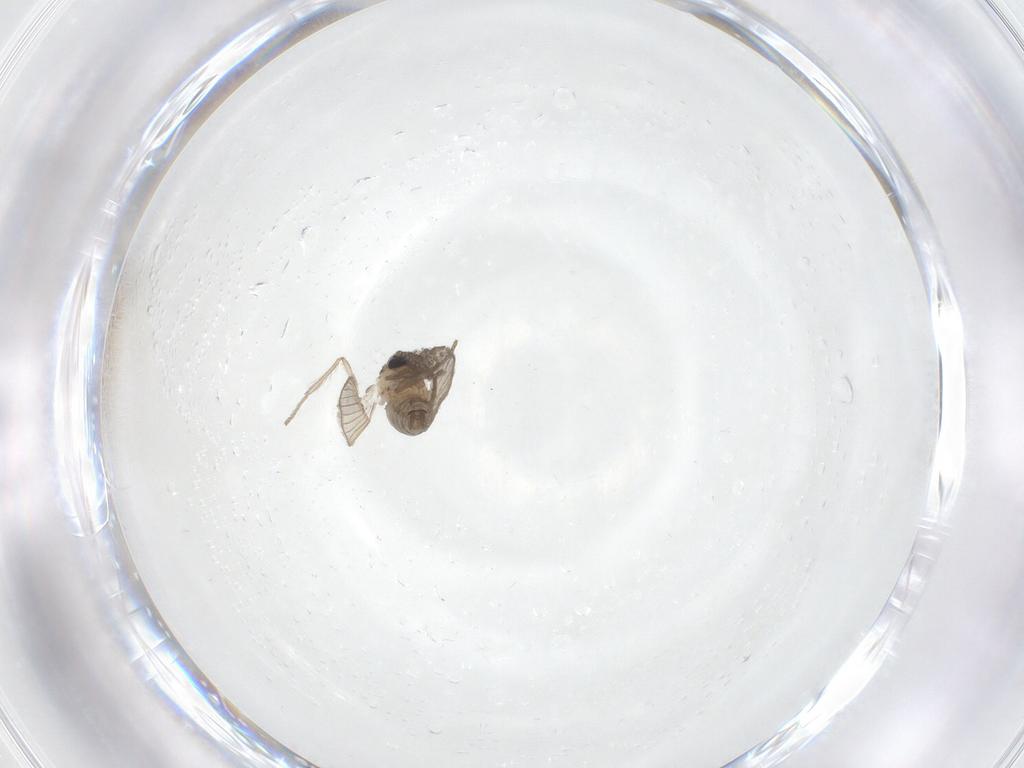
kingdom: Animalia
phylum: Arthropoda
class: Insecta
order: Diptera
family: Psychodidae
